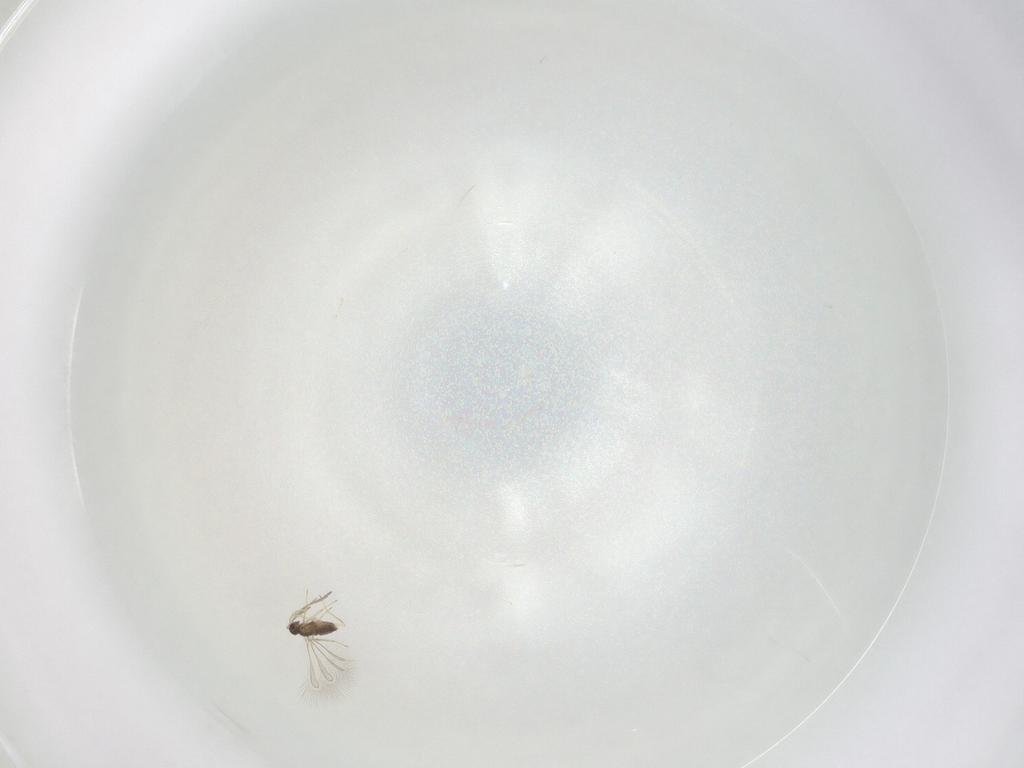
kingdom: Animalia
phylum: Arthropoda
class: Insecta
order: Hymenoptera
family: Mymaridae
